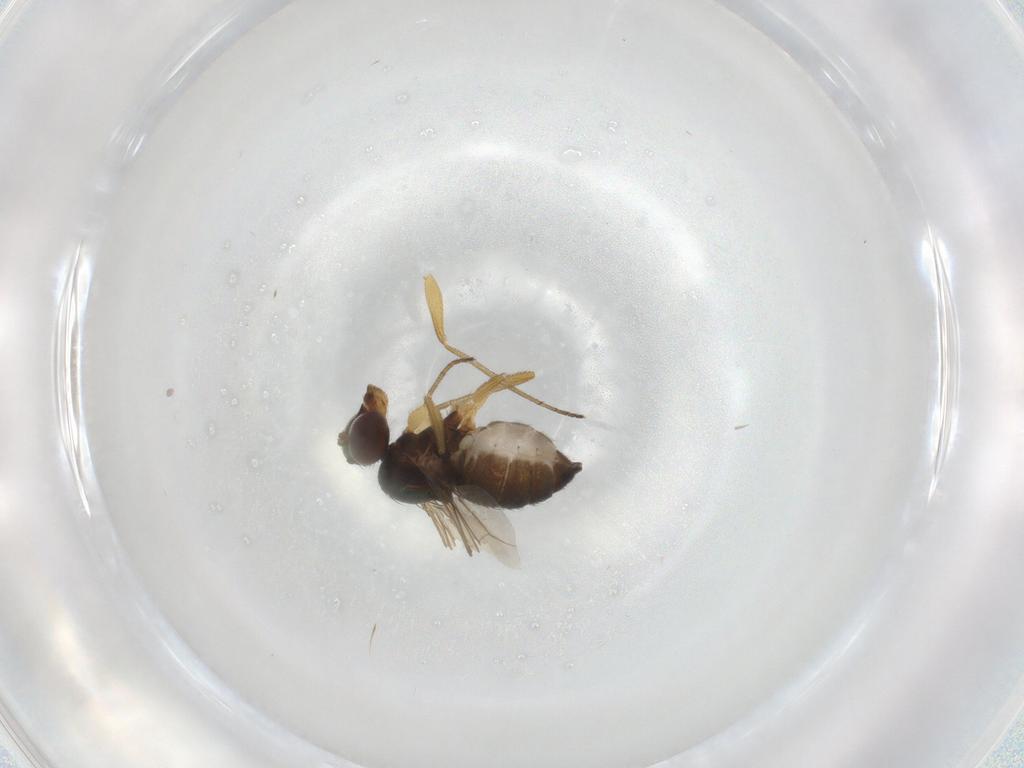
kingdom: Animalia
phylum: Arthropoda
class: Insecta
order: Diptera
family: Dolichopodidae
